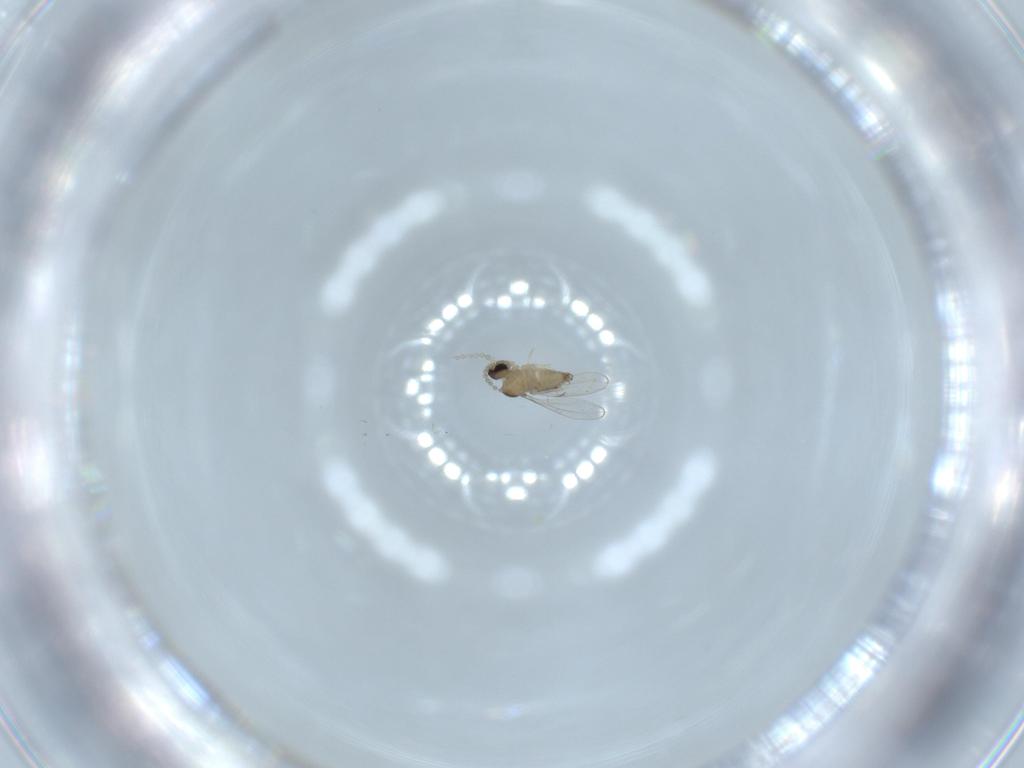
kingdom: Animalia
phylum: Arthropoda
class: Insecta
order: Diptera
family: Cecidomyiidae
